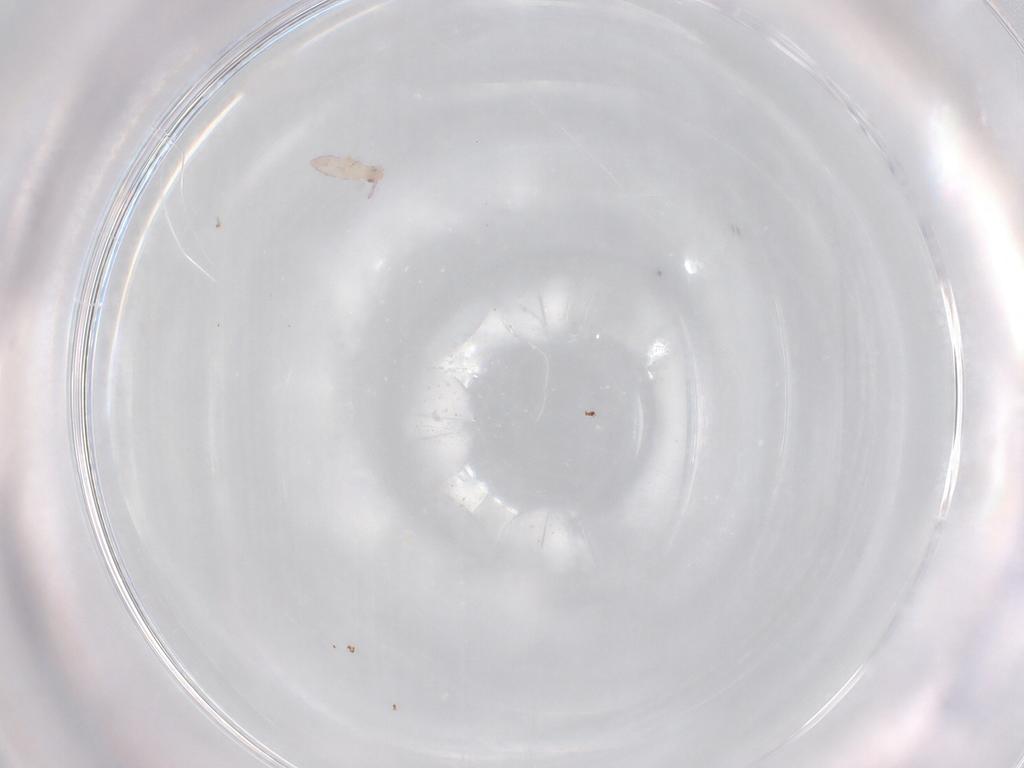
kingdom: Animalia
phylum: Arthropoda
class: Collembola
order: Entomobryomorpha
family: Entomobryidae
